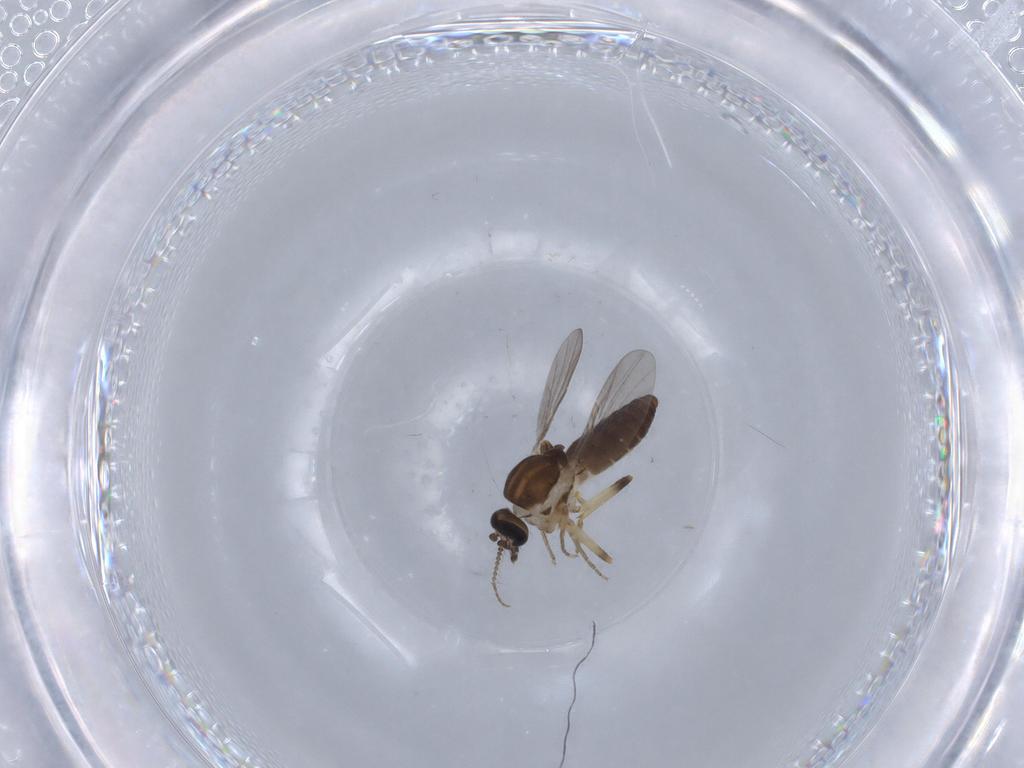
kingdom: Animalia
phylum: Arthropoda
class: Insecta
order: Diptera
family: Ceratopogonidae
